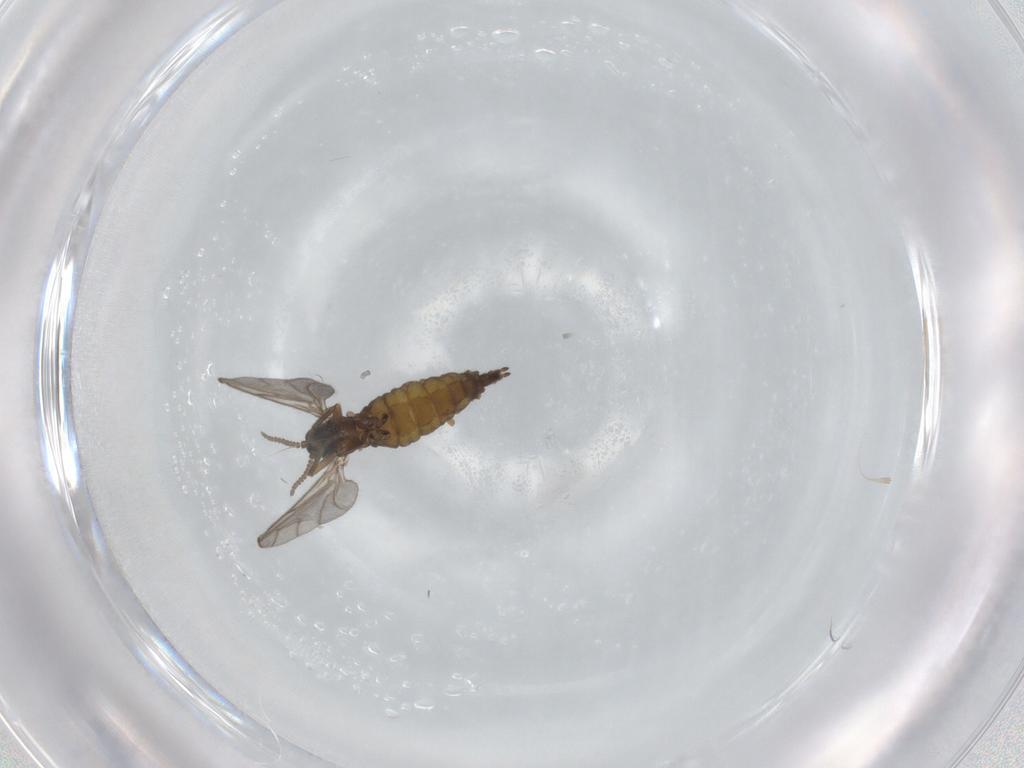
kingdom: Animalia
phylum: Arthropoda
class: Insecta
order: Diptera
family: Sciaridae
